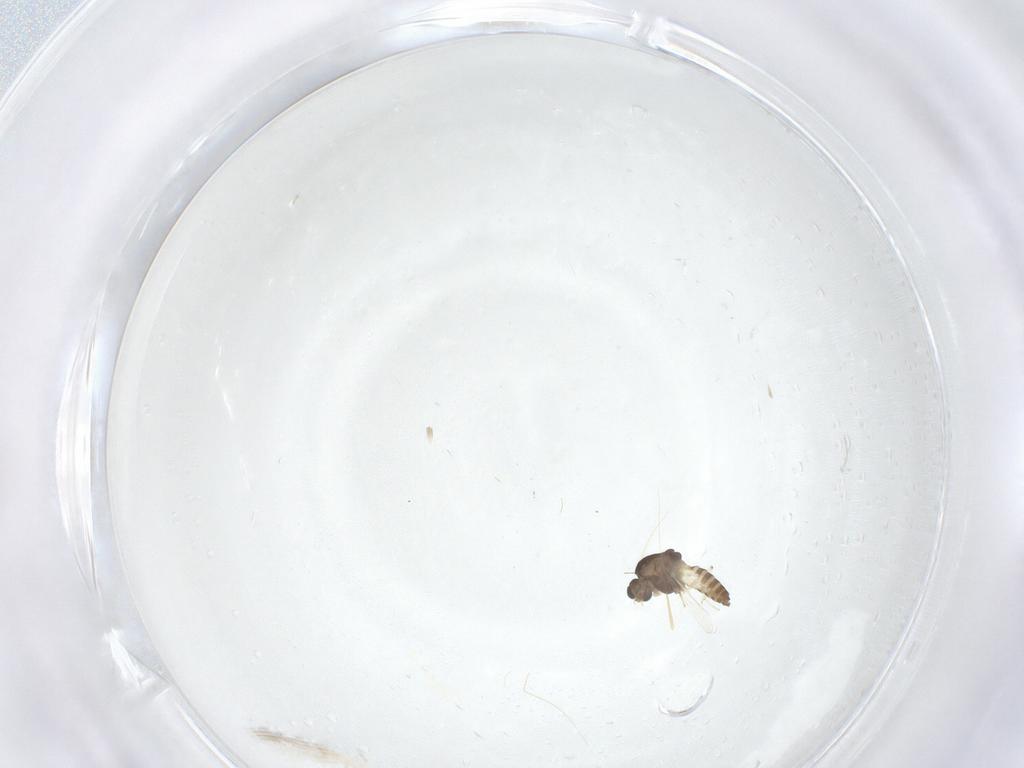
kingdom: Animalia
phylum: Arthropoda
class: Insecta
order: Diptera
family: Chironomidae
